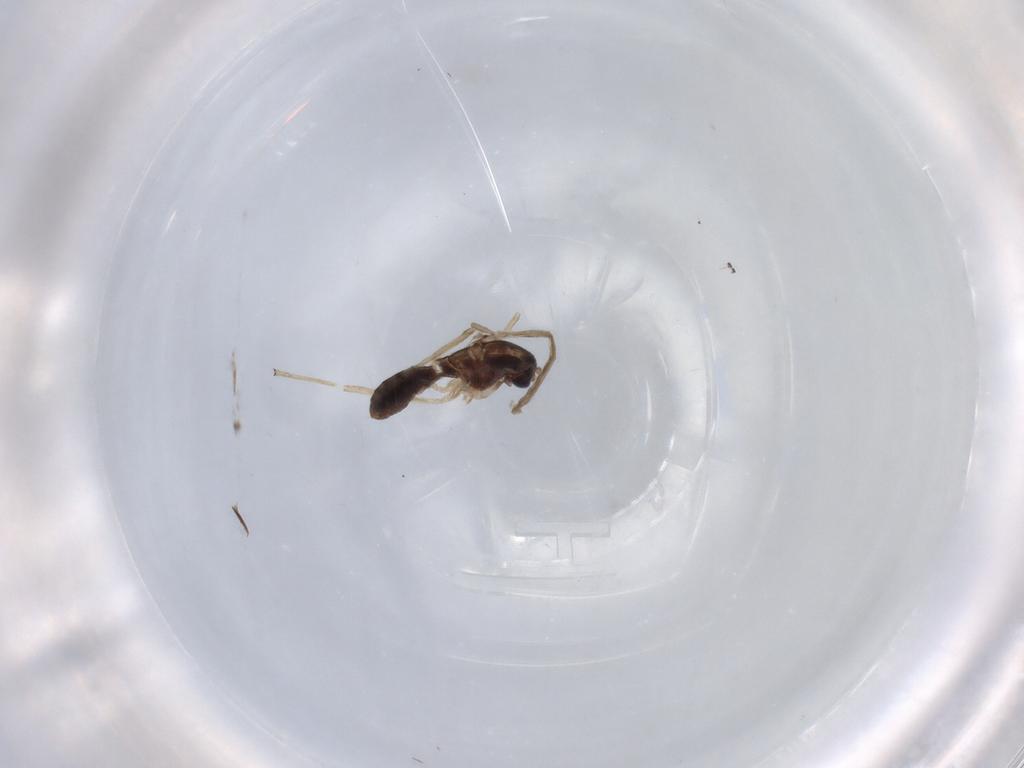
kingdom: Animalia
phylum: Arthropoda
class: Insecta
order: Diptera
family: Chironomidae
